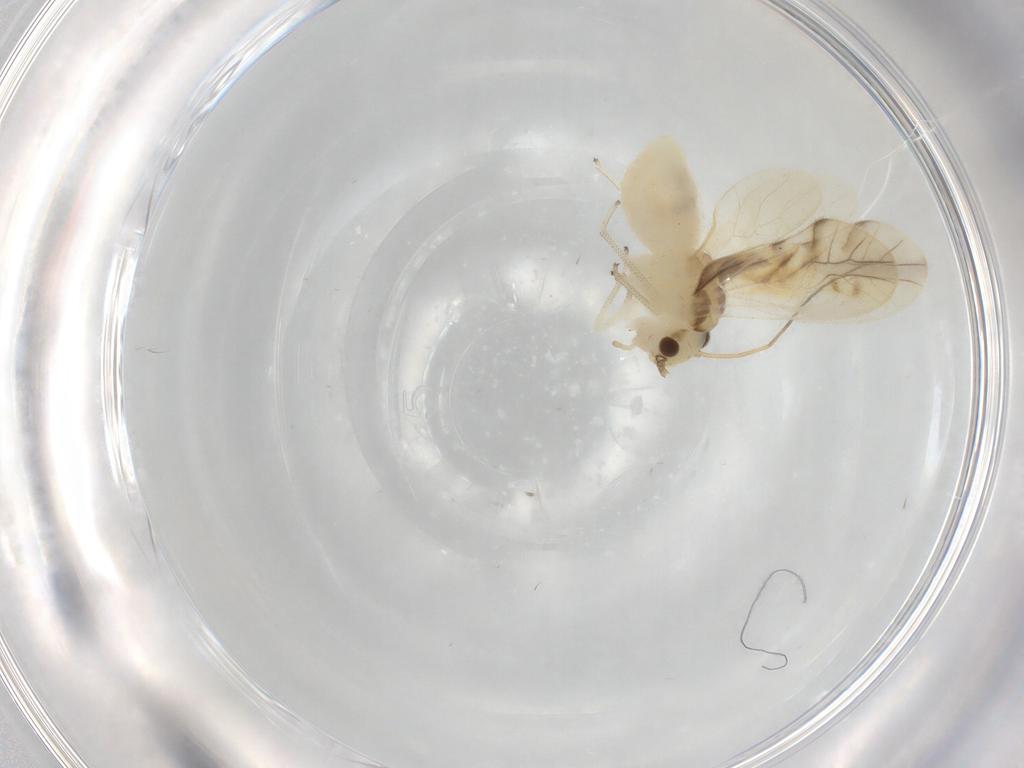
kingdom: Animalia
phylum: Arthropoda
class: Insecta
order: Psocodea
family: Caeciliusidae
